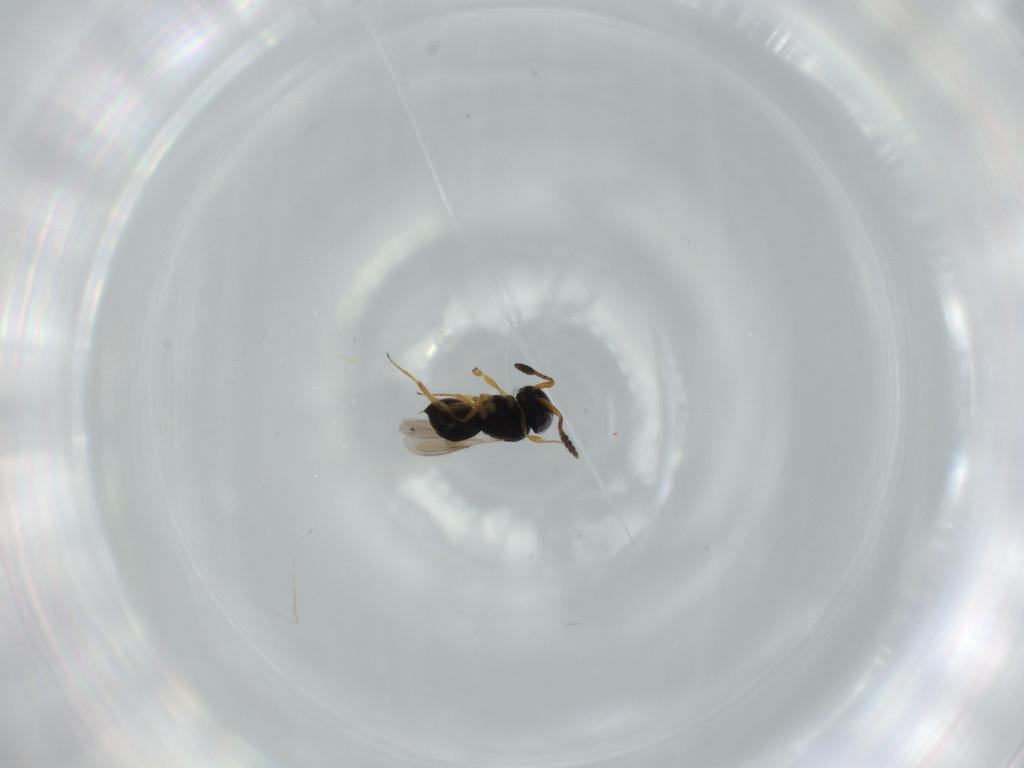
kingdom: Animalia
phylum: Arthropoda
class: Insecta
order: Hymenoptera
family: Scelionidae
